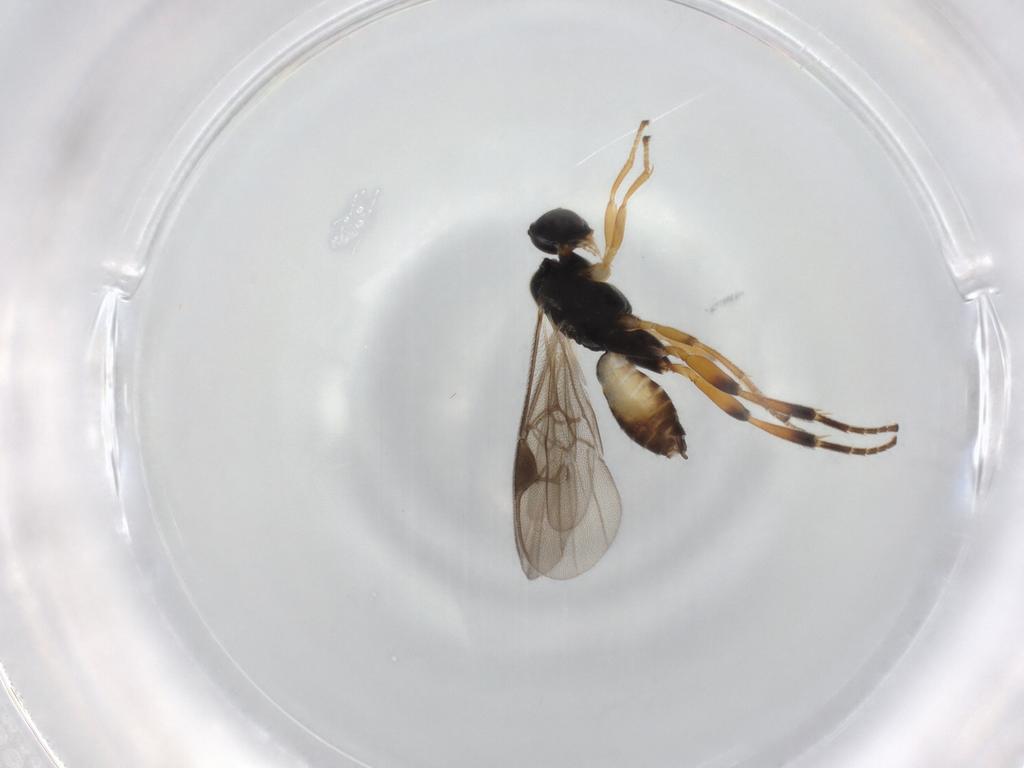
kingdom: Animalia
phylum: Arthropoda
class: Insecta
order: Hymenoptera
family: Braconidae
